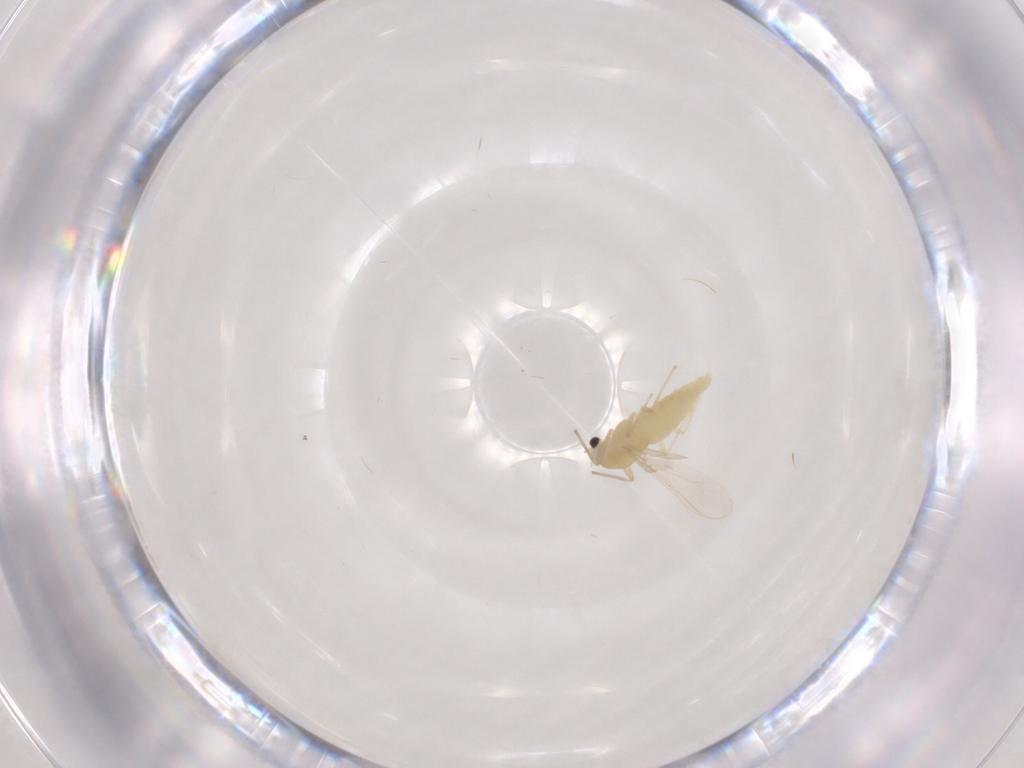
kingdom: Animalia
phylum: Arthropoda
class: Insecta
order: Diptera
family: Chironomidae
